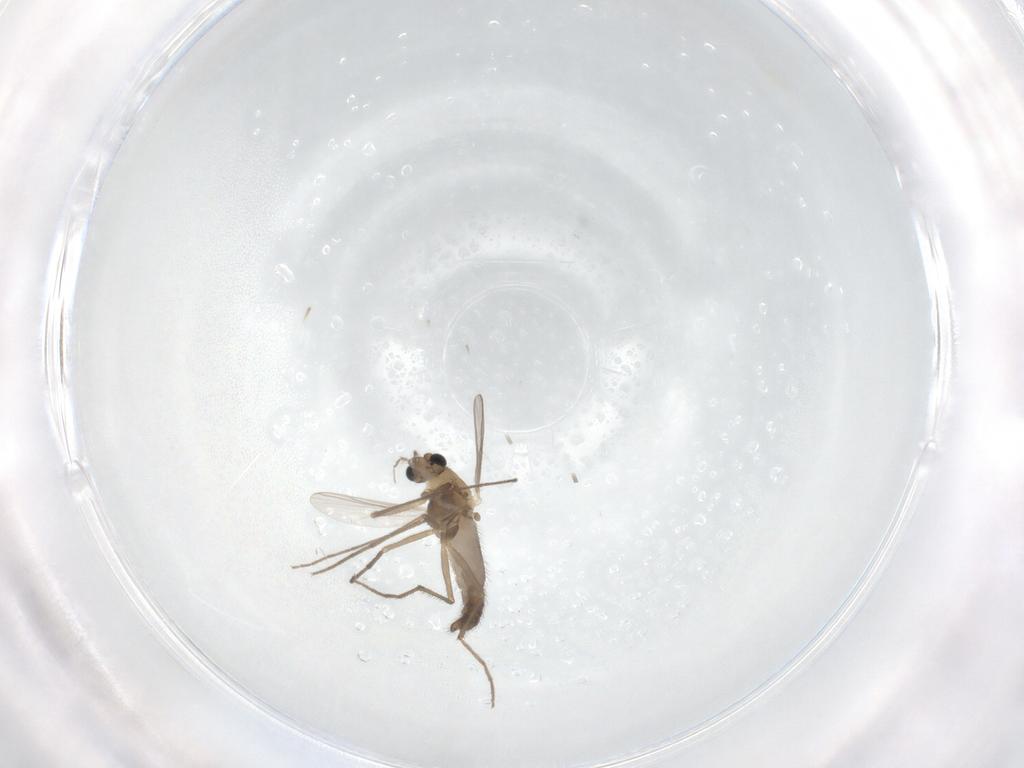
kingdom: Animalia
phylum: Arthropoda
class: Insecta
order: Diptera
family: Chironomidae
